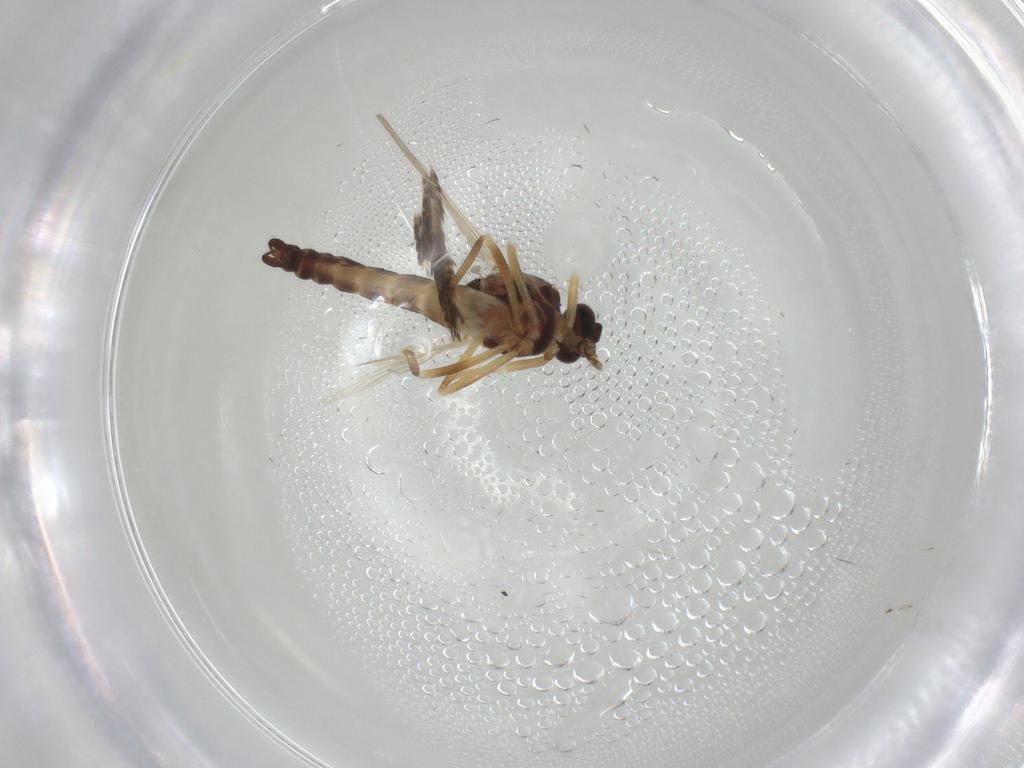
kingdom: Animalia
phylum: Arthropoda
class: Insecta
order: Diptera
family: Ceratopogonidae
